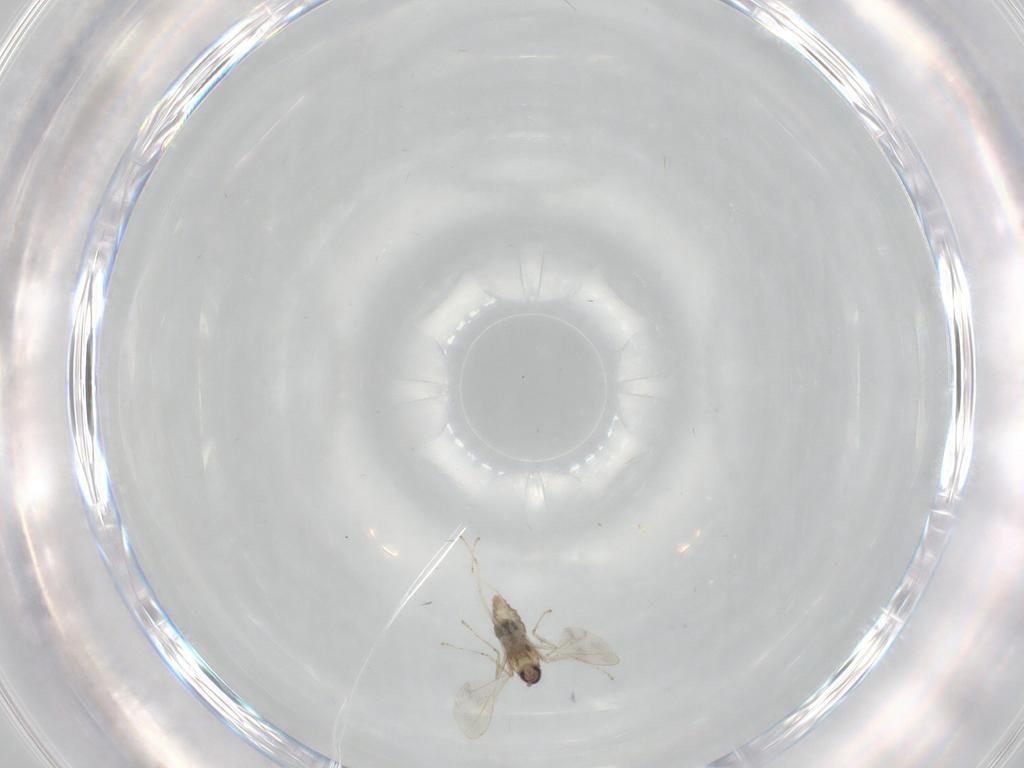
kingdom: Animalia
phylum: Arthropoda
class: Insecta
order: Diptera
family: Cecidomyiidae
